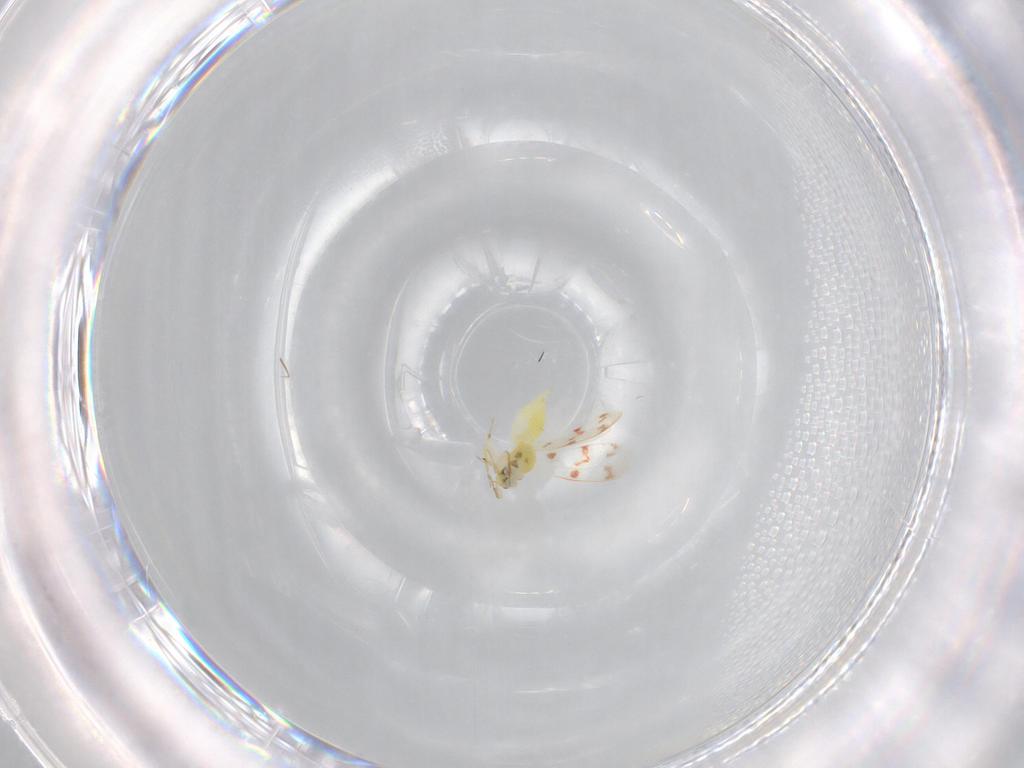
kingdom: Animalia
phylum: Arthropoda
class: Insecta
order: Hemiptera
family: Aleyrodidae
